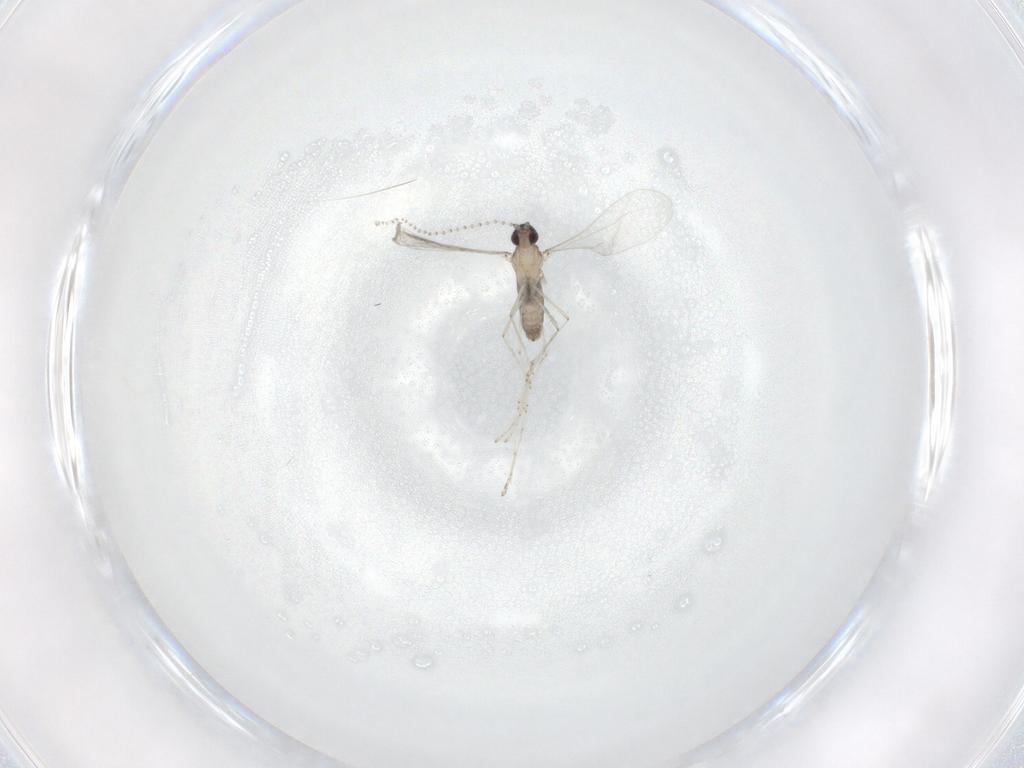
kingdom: Animalia
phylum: Arthropoda
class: Insecta
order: Diptera
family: Cecidomyiidae
